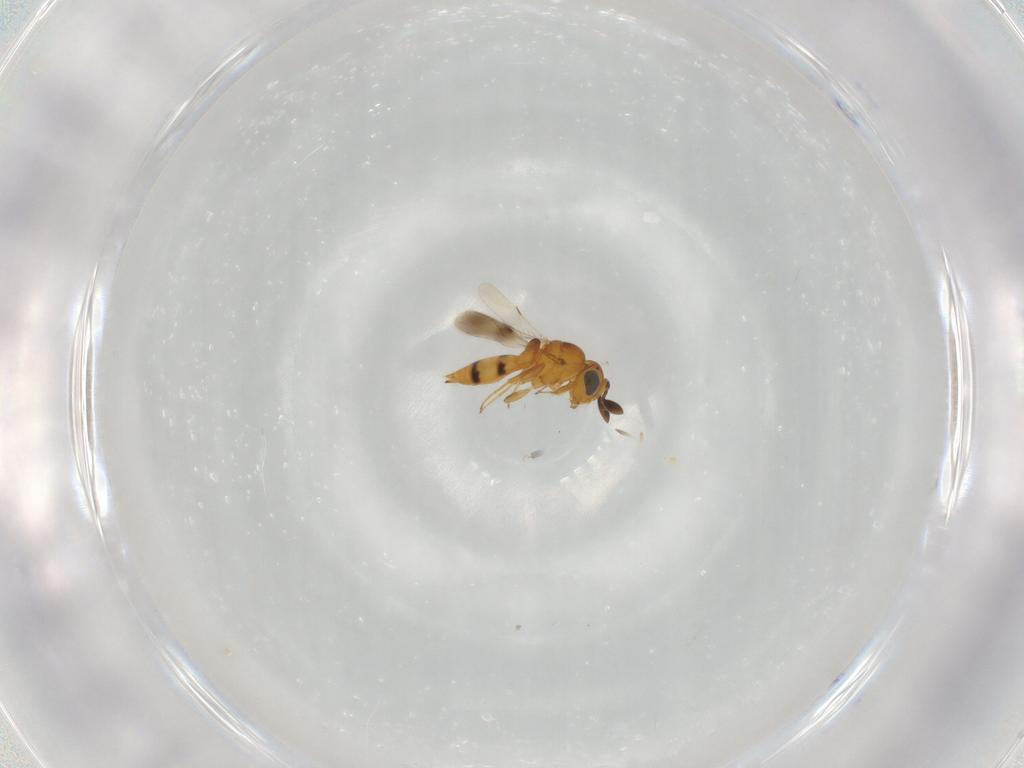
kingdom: Animalia
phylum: Arthropoda
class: Insecta
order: Hymenoptera
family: Scelionidae
